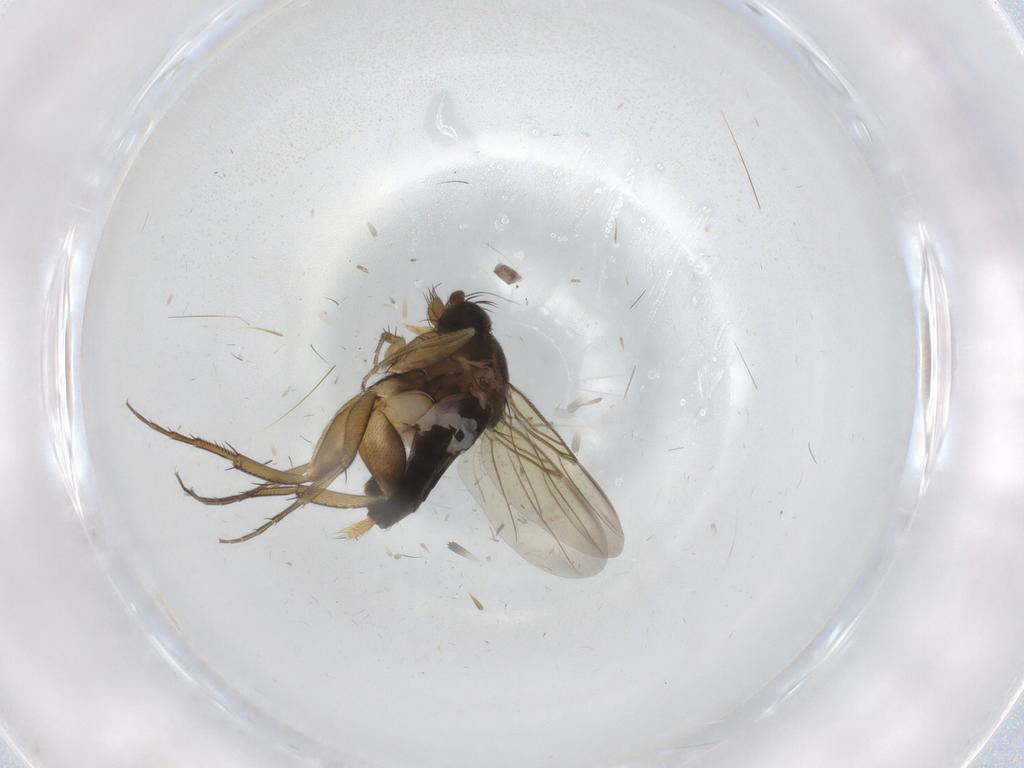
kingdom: Animalia
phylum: Arthropoda
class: Insecta
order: Diptera
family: Phoridae
